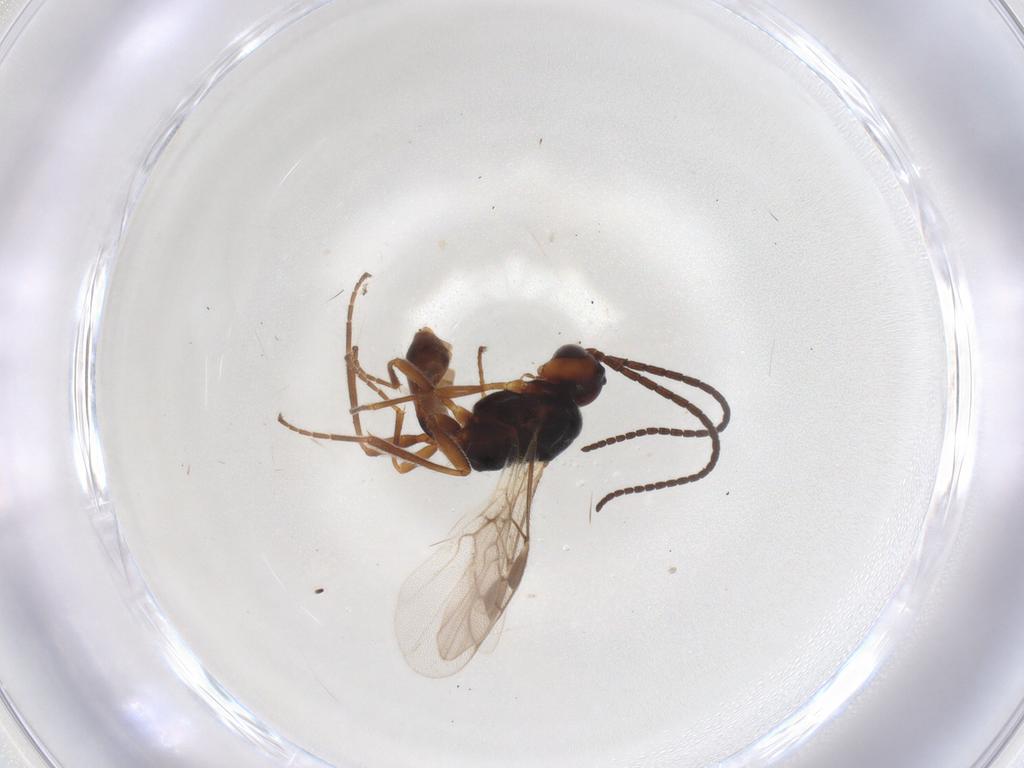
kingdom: Animalia
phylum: Arthropoda
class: Insecta
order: Hymenoptera
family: Braconidae
